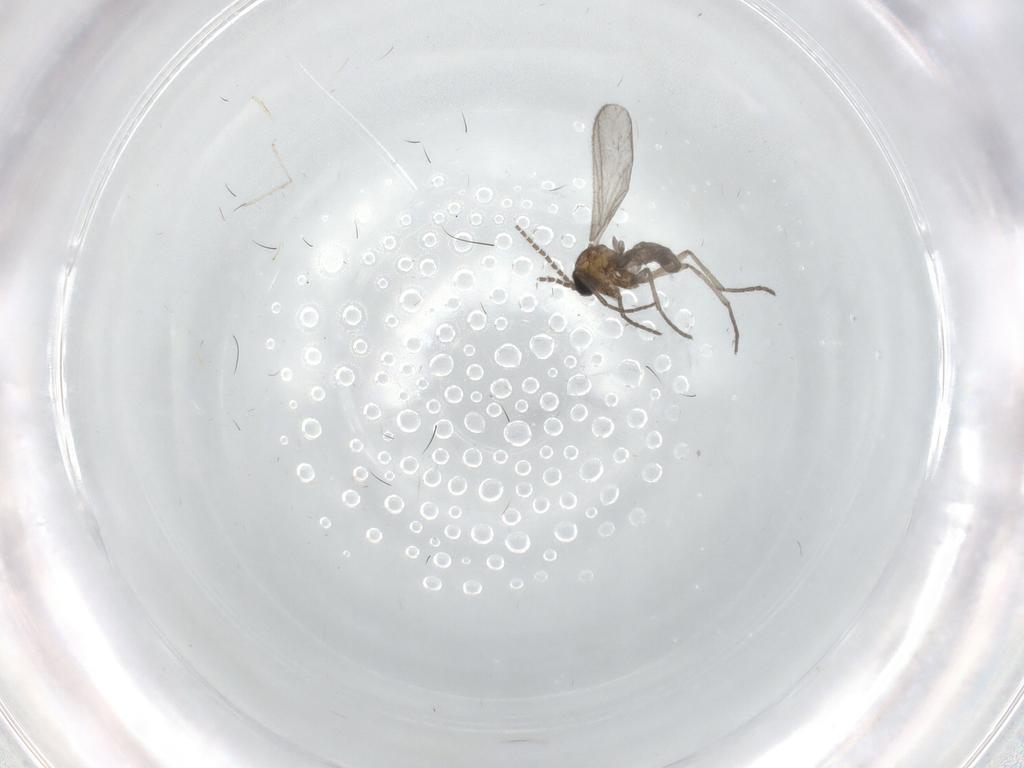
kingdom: Animalia
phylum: Arthropoda
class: Insecta
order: Diptera
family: Sciaridae
